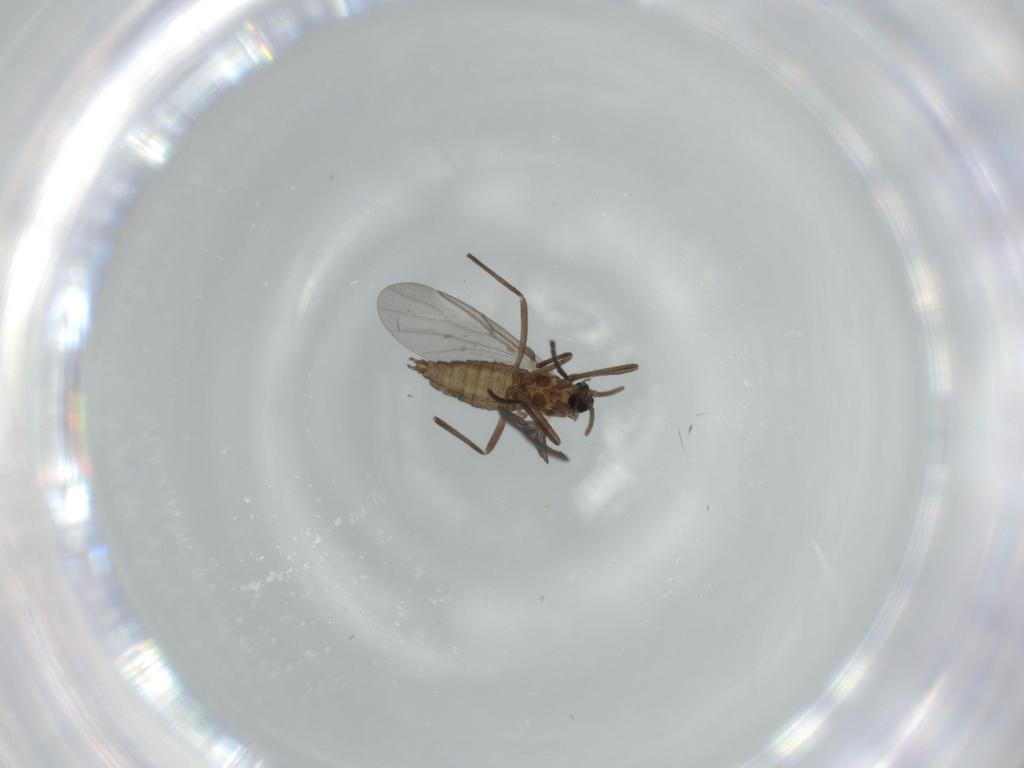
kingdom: Animalia
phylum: Arthropoda
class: Insecta
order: Diptera
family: Cecidomyiidae
